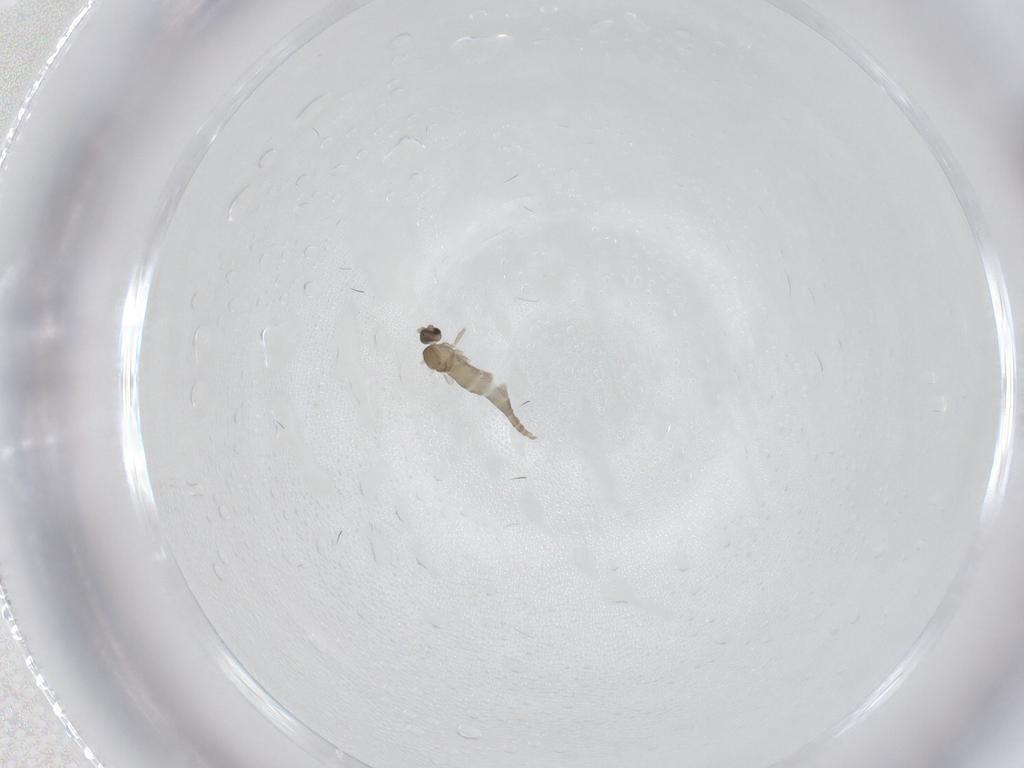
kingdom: Animalia
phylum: Arthropoda
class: Insecta
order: Diptera
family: Cecidomyiidae
